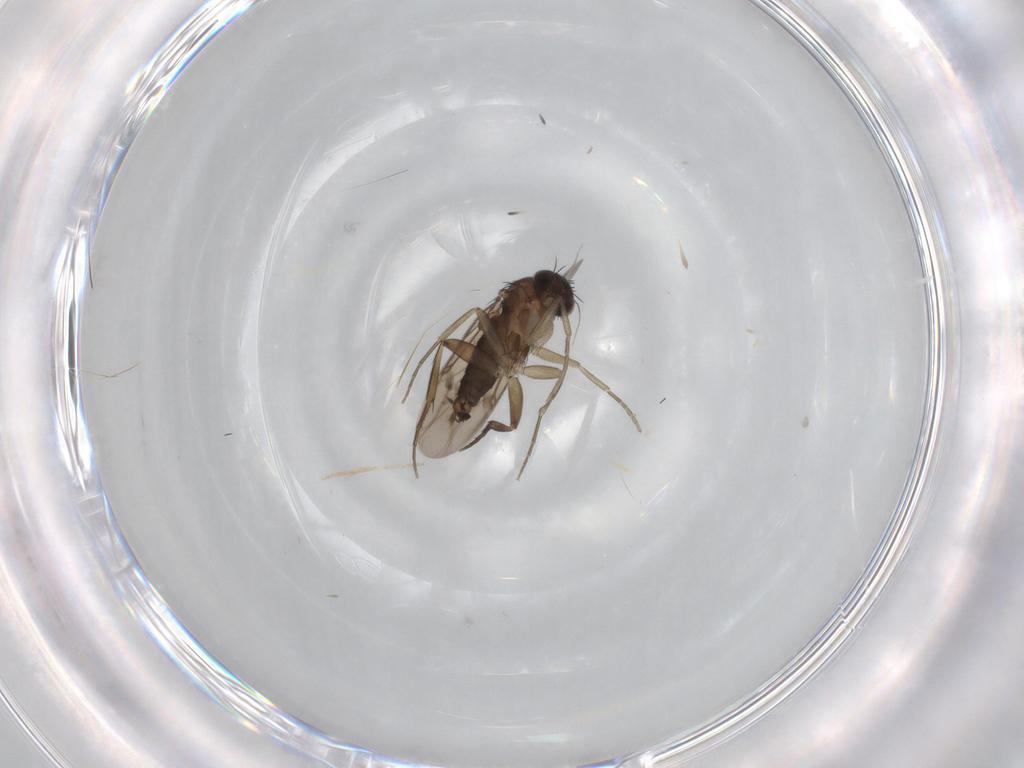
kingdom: Animalia
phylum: Arthropoda
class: Insecta
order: Diptera
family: Phoridae
